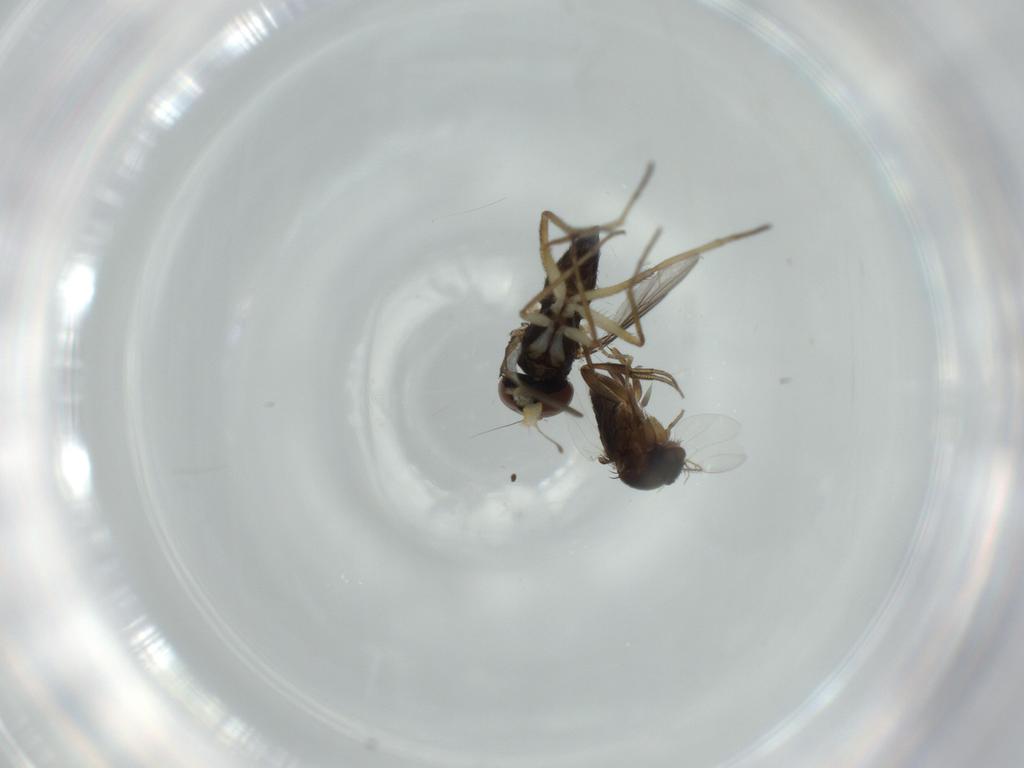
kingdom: Animalia
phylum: Arthropoda
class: Insecta
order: Diptera
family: Dolichopodidae
